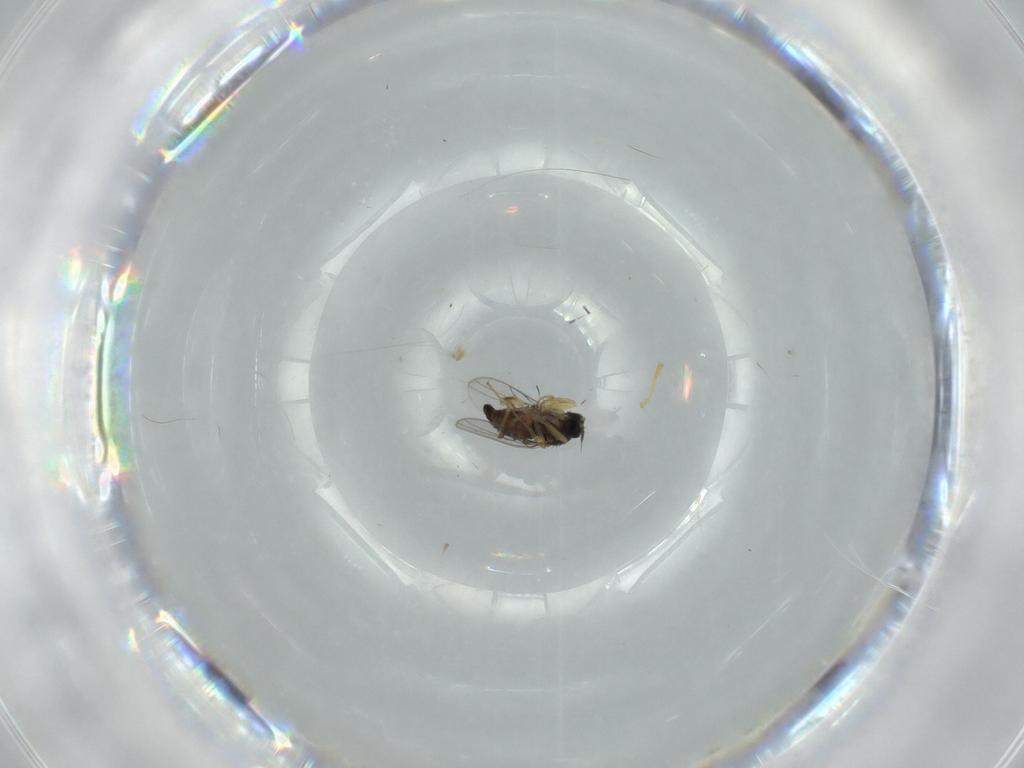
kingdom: Animalia
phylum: Arthropoda
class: Insecta
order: Diptera
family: Hybotidae
